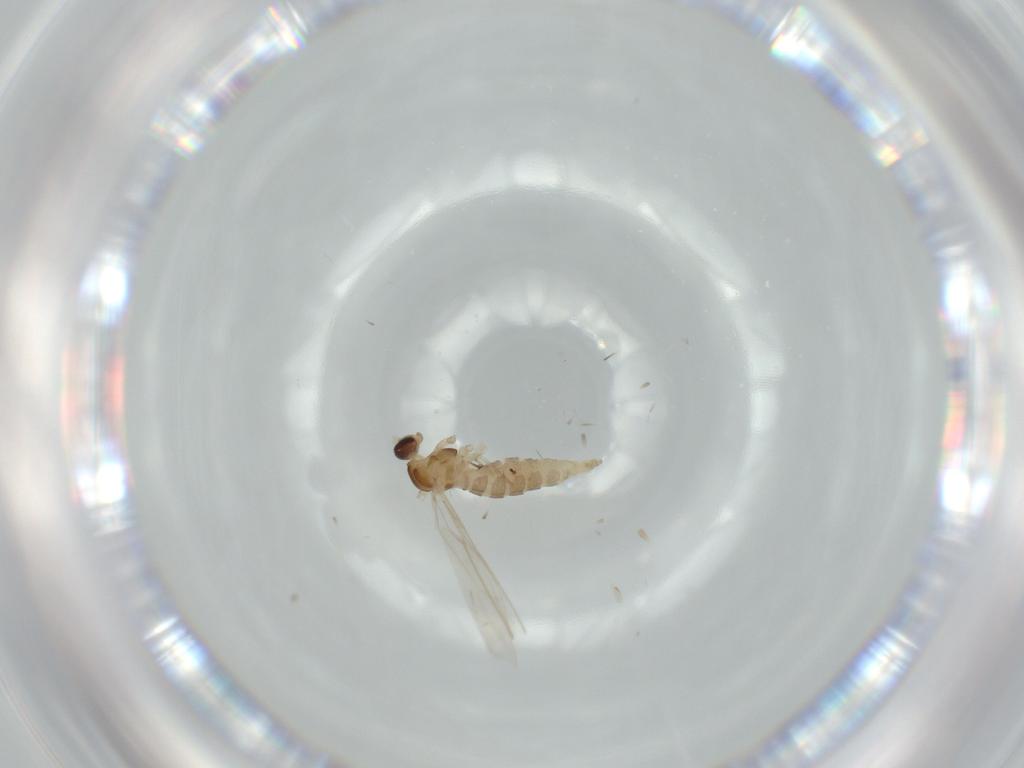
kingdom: Animalia
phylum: Arthropoda
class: Insecta
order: Diptera
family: Cecidomyiidae
